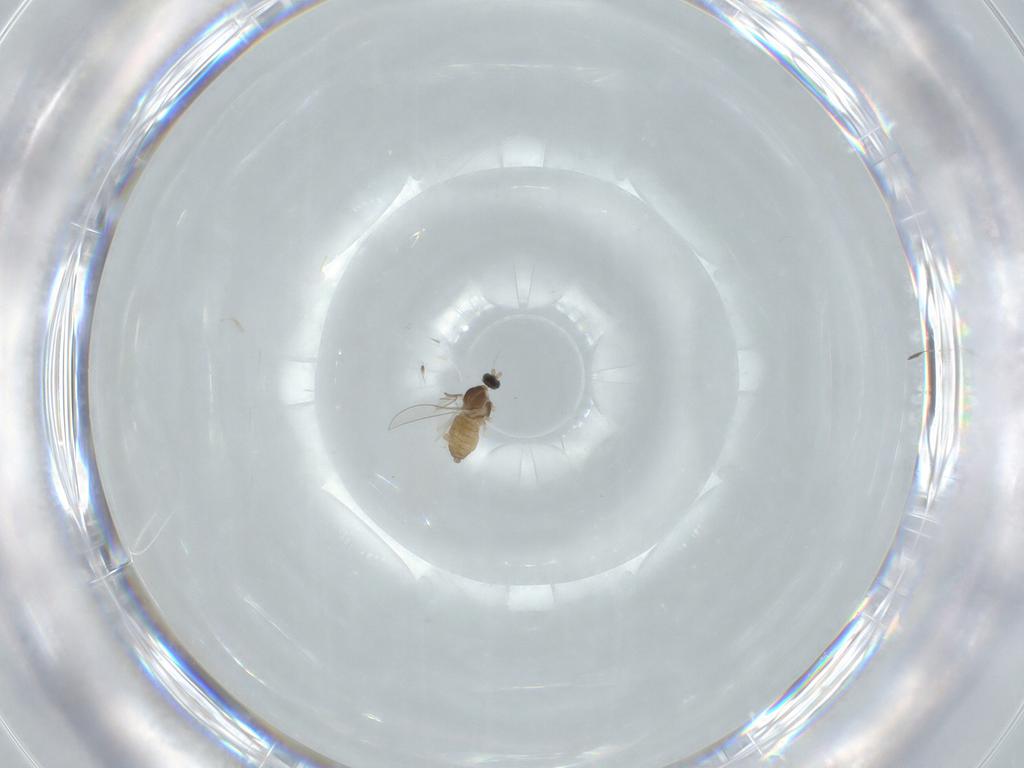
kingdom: Animalia
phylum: Arthropoda
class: Insecta
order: Diptera
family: Cecidomyiidae
